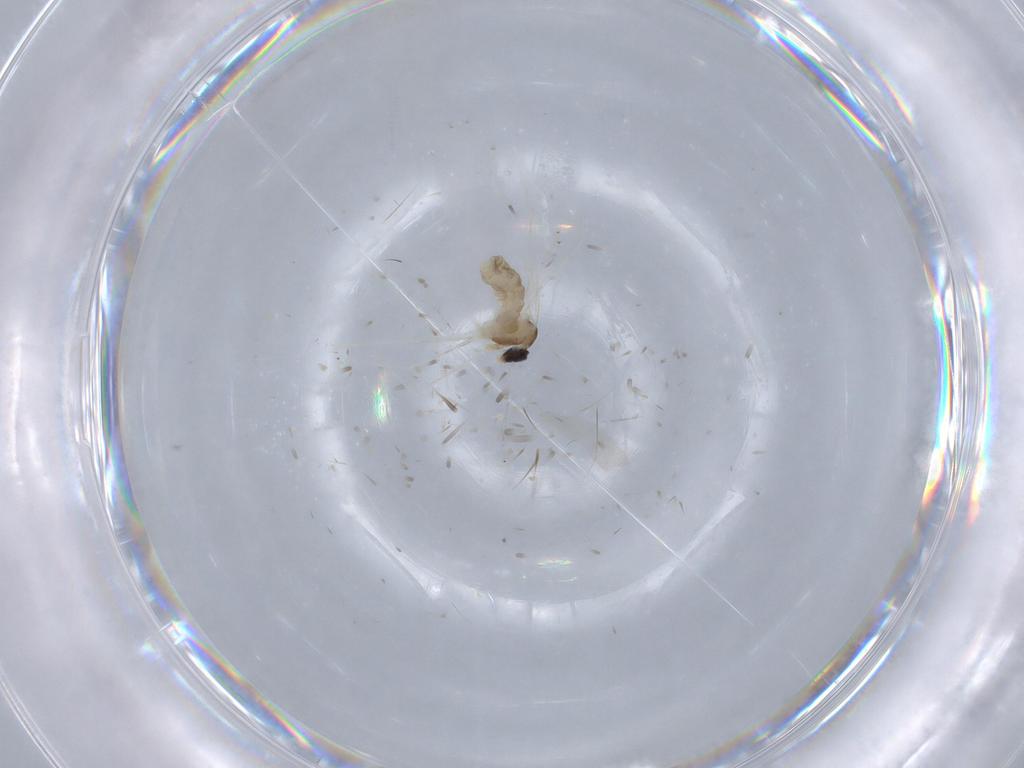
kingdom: Animalia
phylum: Arthropoda
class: Insecta
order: Diptera
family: Cecidomyiidae
